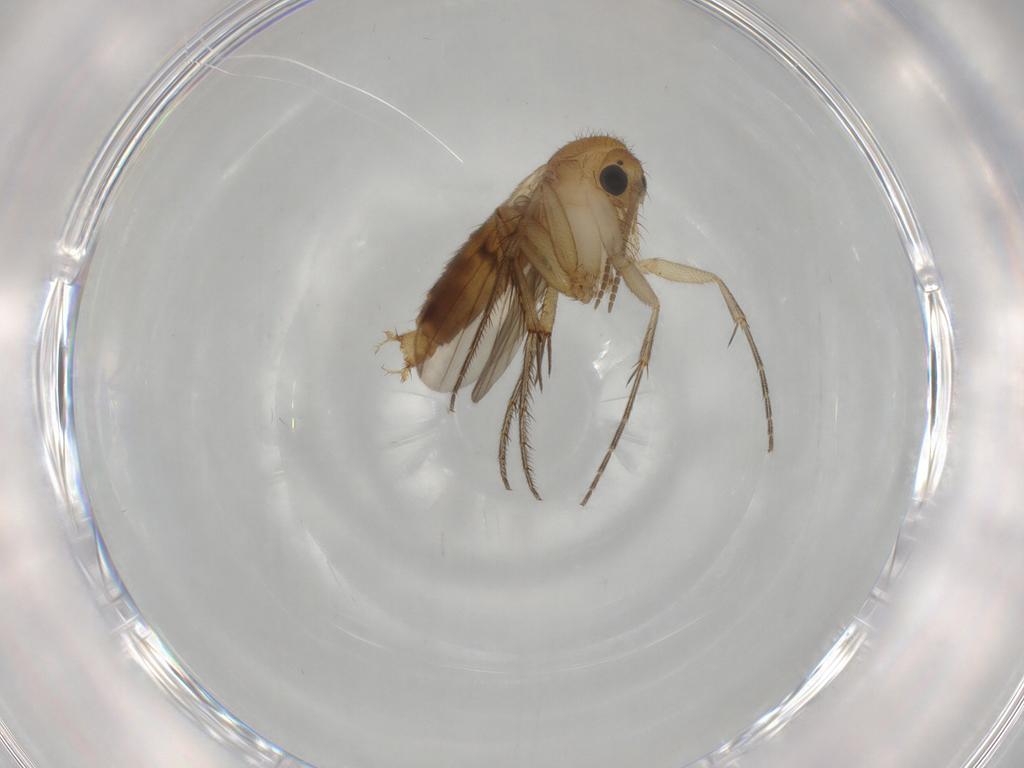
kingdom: Animalia
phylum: Arthropoda
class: Insecta
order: Diptera
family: Mycetophilidae
